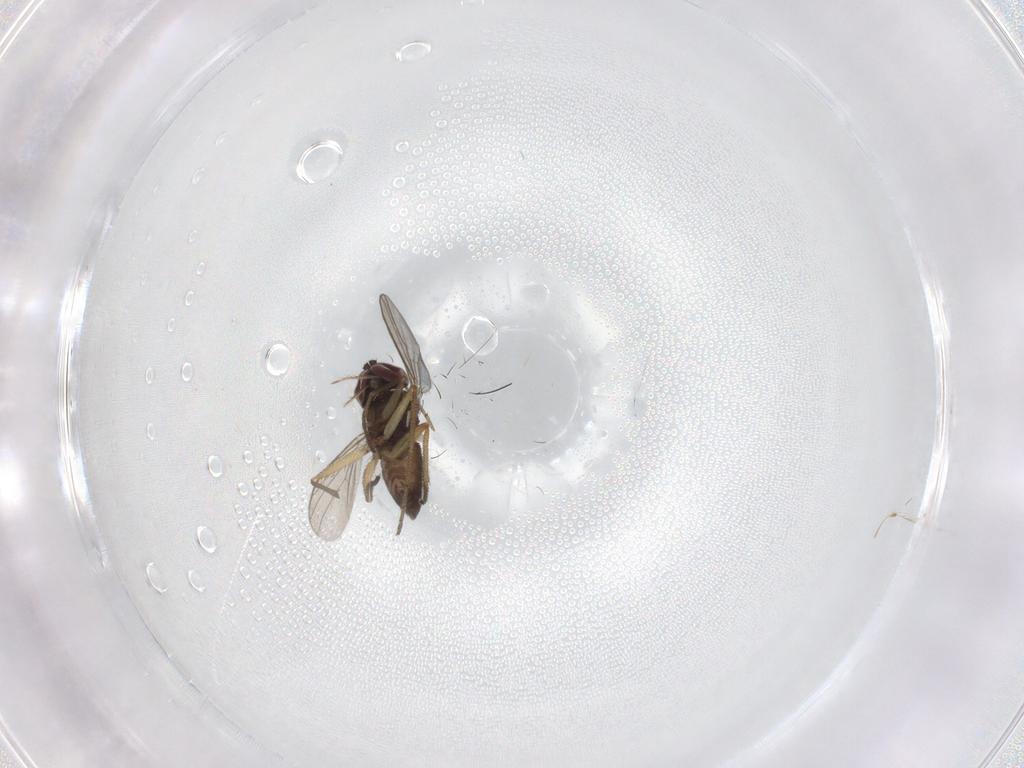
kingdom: Animalia
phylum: Arthropoda
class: Insecta
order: Diptera
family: Dolichopodidae
